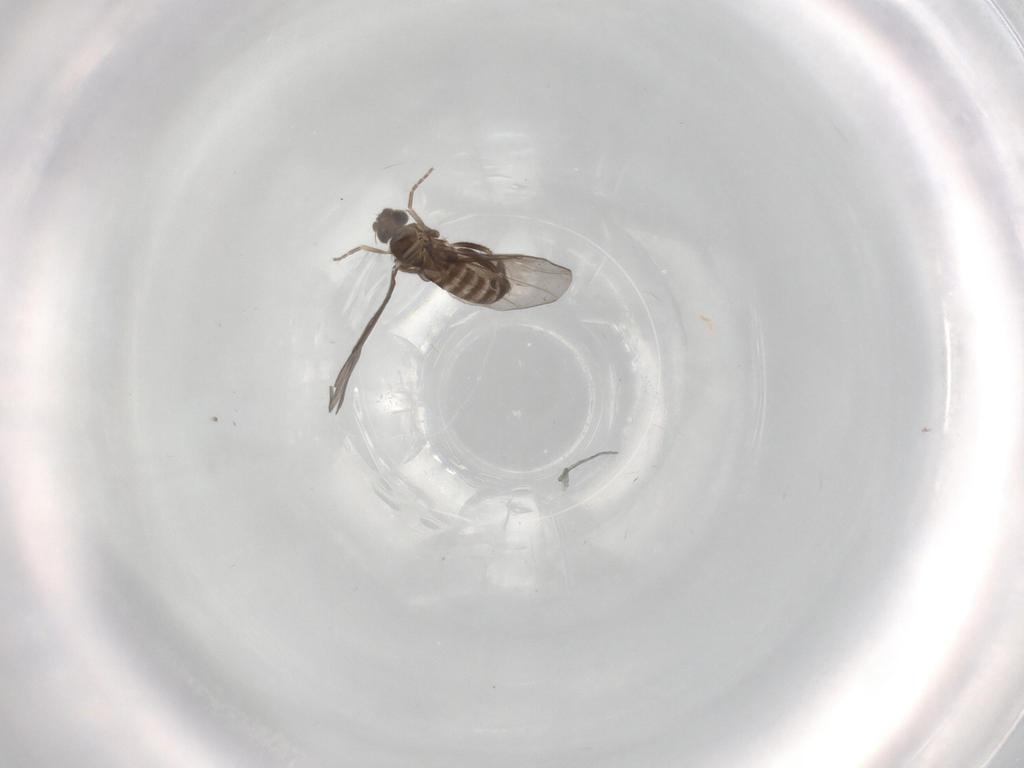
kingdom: Animalia
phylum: Arthropoda
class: Insecta
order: Diptera
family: Phoridae
